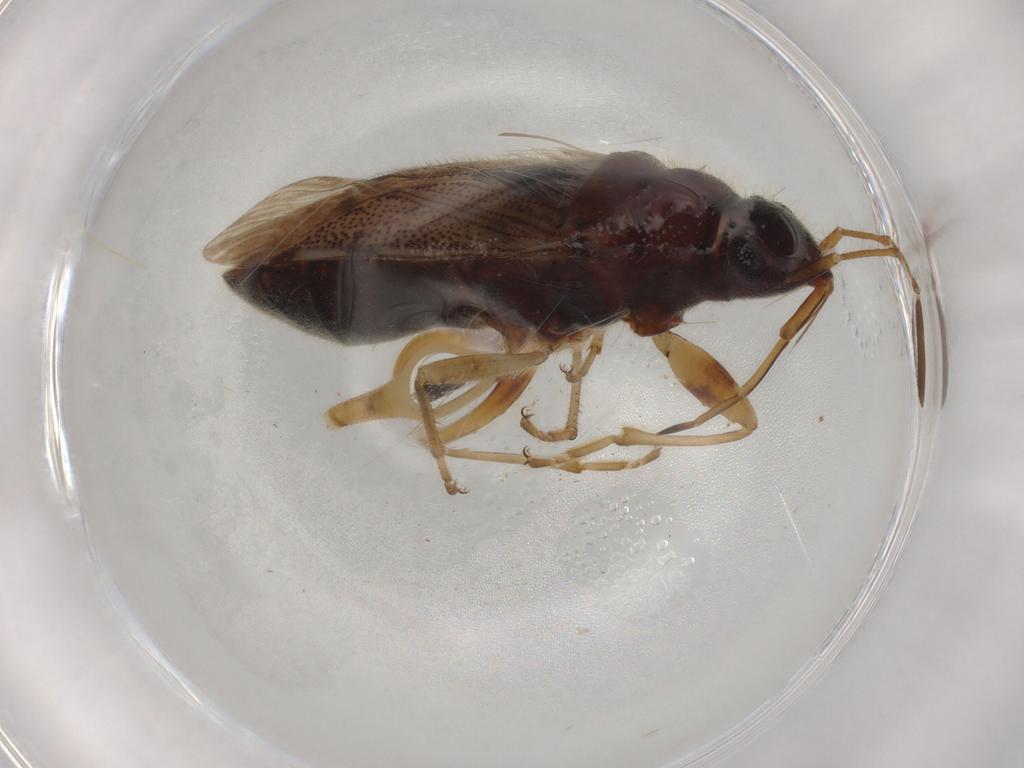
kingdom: Animalia
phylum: Arthropoda
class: Insecta
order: Hemiptera
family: Rhyparochromidae
